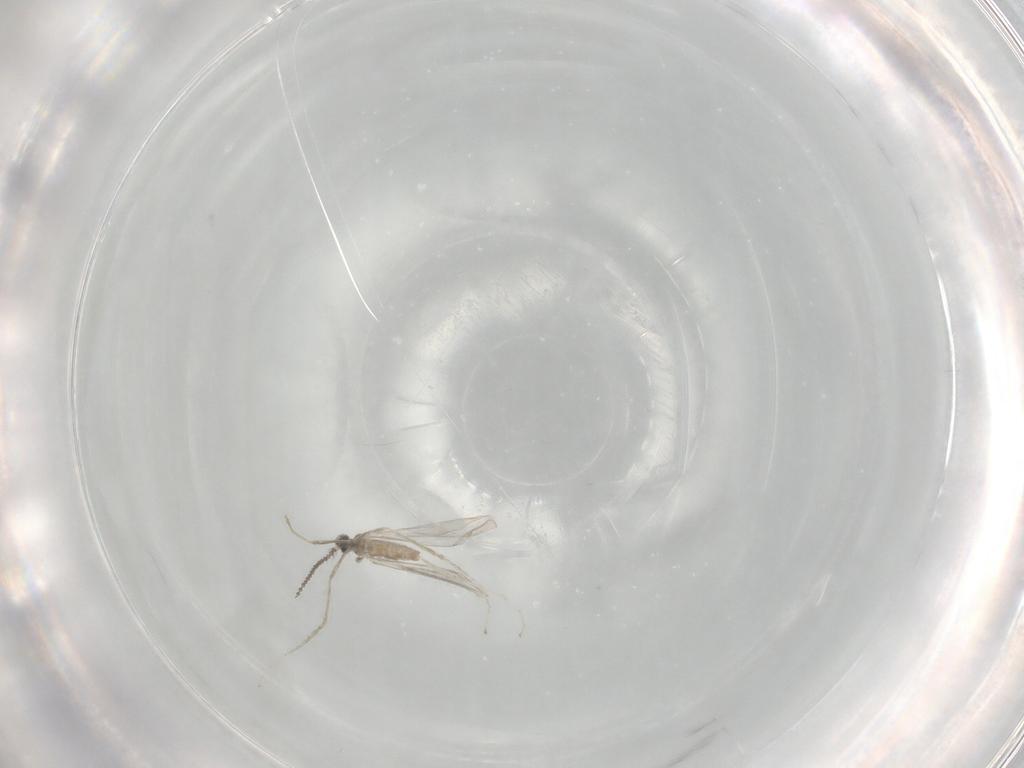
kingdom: Animalia
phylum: Arthropoda
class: Insecta
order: Diptera
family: Cecidomyiidae
